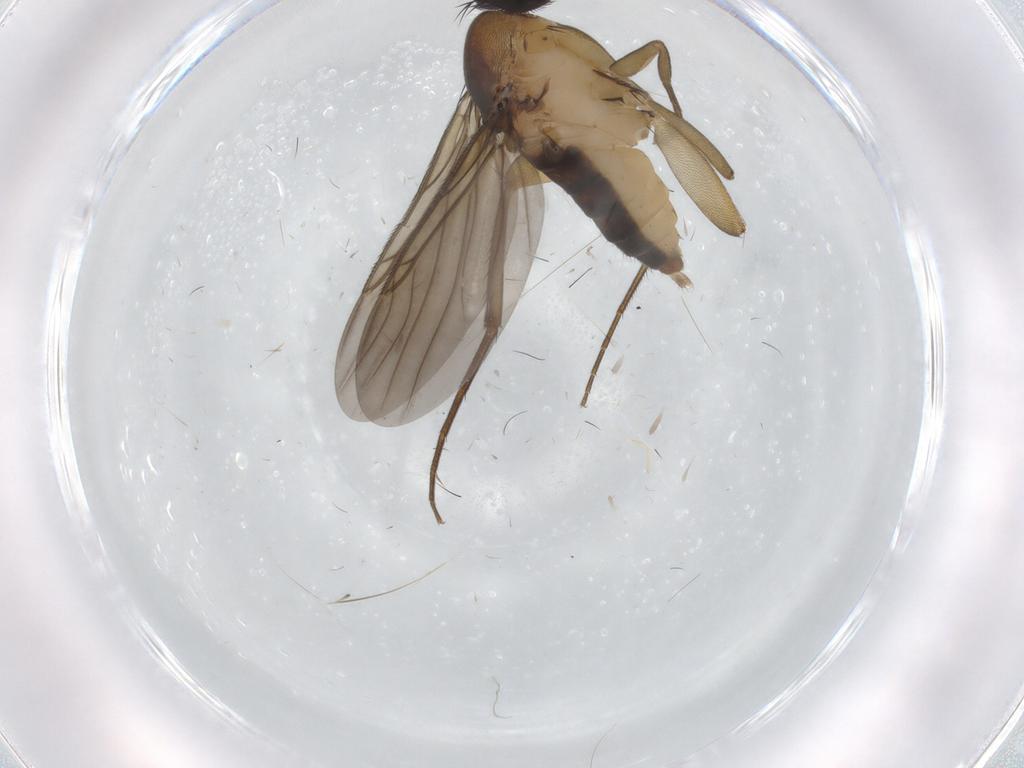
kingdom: Animalia
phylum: Arthropoda
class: Insecta
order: Diptera
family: Phoridae
